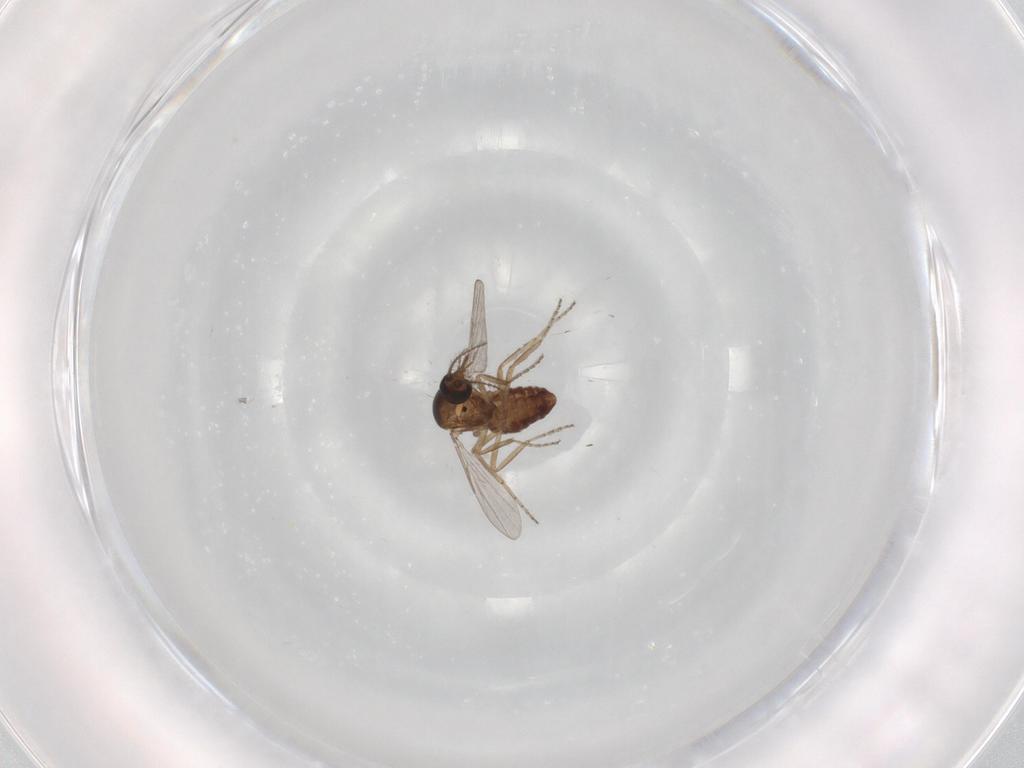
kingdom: Animalia
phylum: Arthropoda
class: Insecta
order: Diptera
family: Ceratopogonidae
